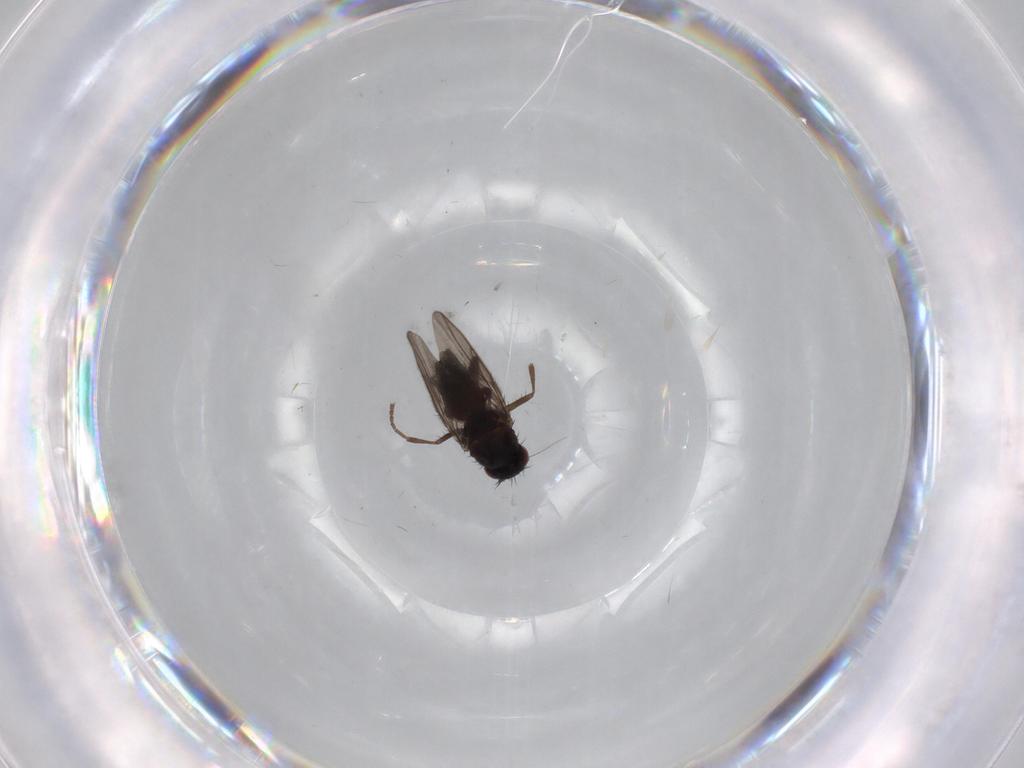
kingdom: Animalia
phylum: Arthropoda
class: Insecta
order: Diptera
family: Sphaeroceridae
